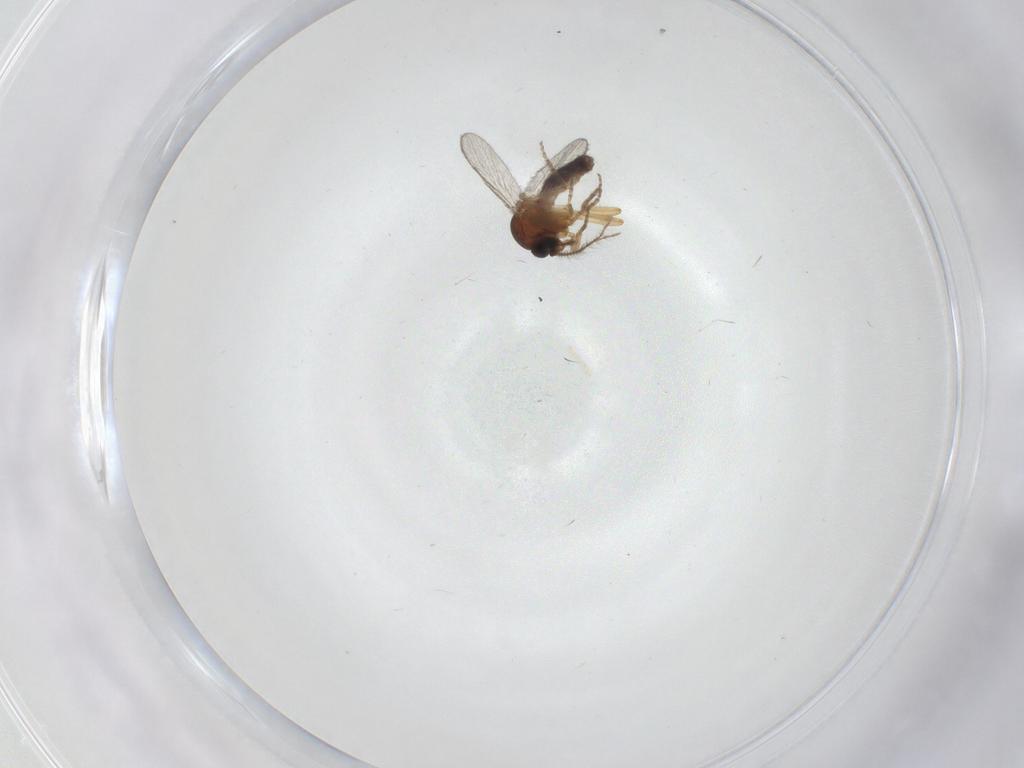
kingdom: Animalia
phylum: Arthropoda
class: Insecta
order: Diptera
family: Ceratopogonidae
